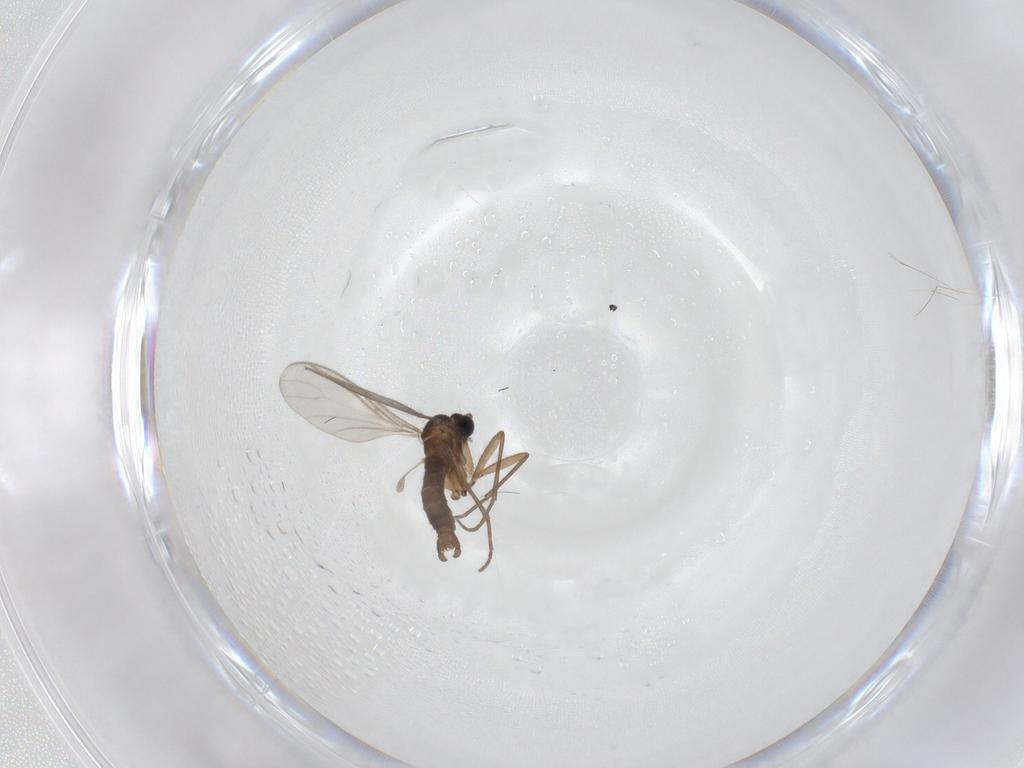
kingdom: Animalia
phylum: Arthropoda
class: Insecta
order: Diptera
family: Sciaridae
